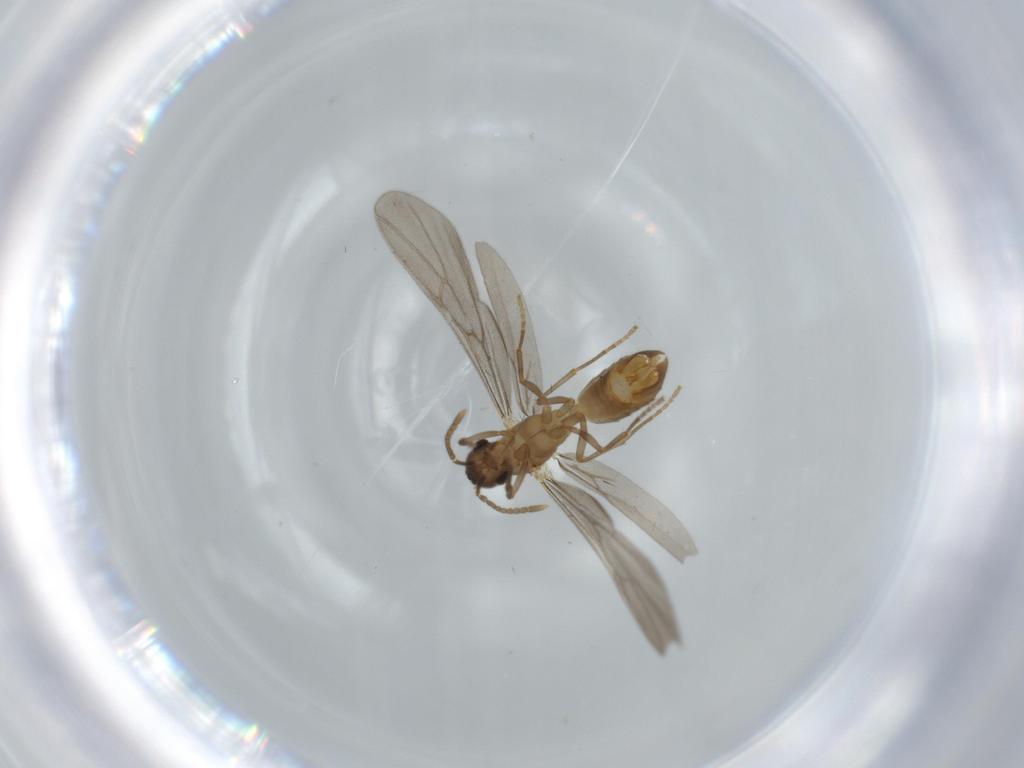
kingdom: Animalia
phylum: Arthropoda
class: Insecta
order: Hymenoptera
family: Formicidae
